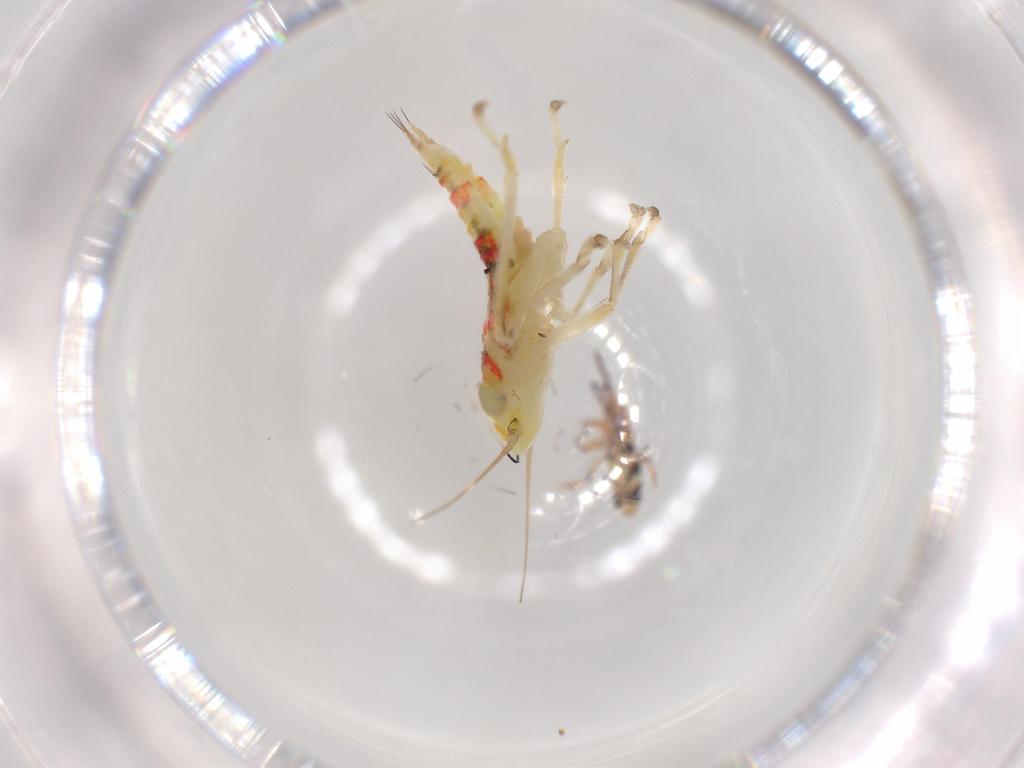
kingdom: Animalia
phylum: Arthropoda
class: Insecta
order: Hemiptera
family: Cicadellidae
